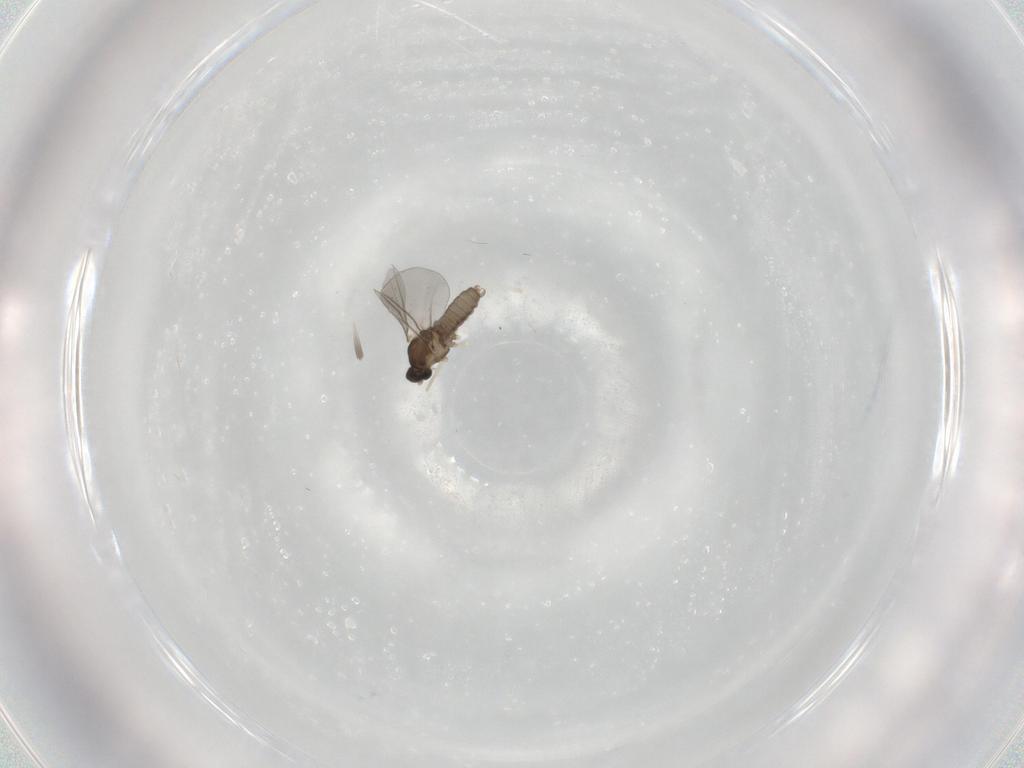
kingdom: Animalia
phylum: Arthropoda
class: Insecta
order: Diptera
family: Cecidomyiidae
